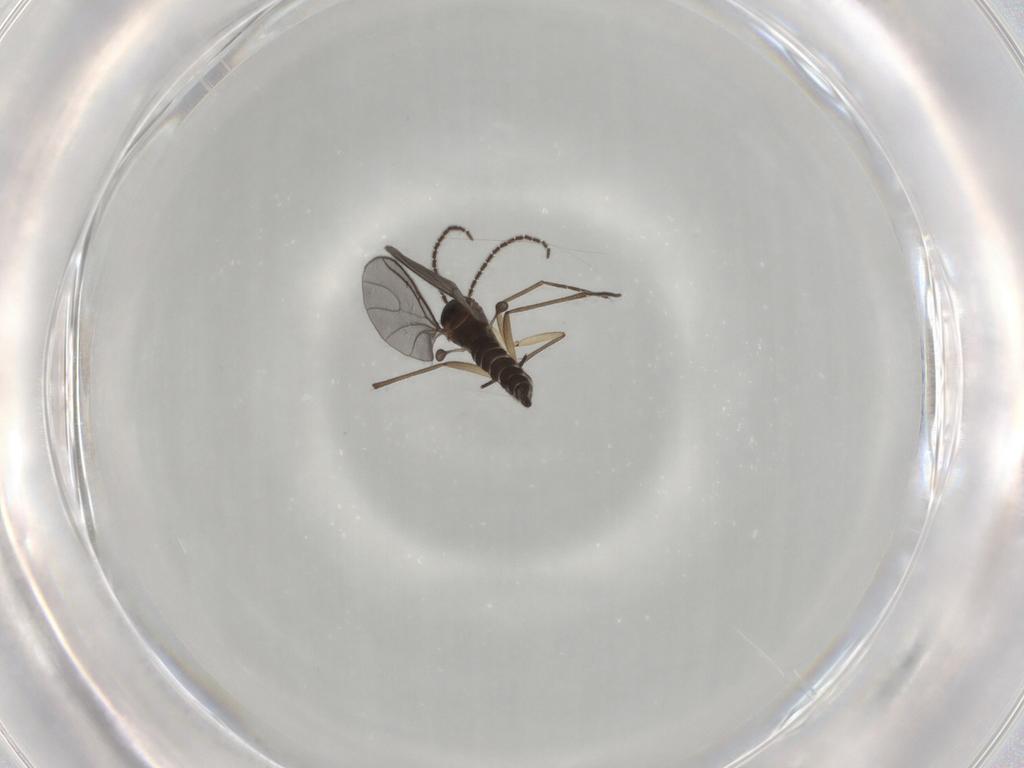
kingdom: Animalia
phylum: Arthropoda
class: Insecta
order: Diptera
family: Sciaridae
